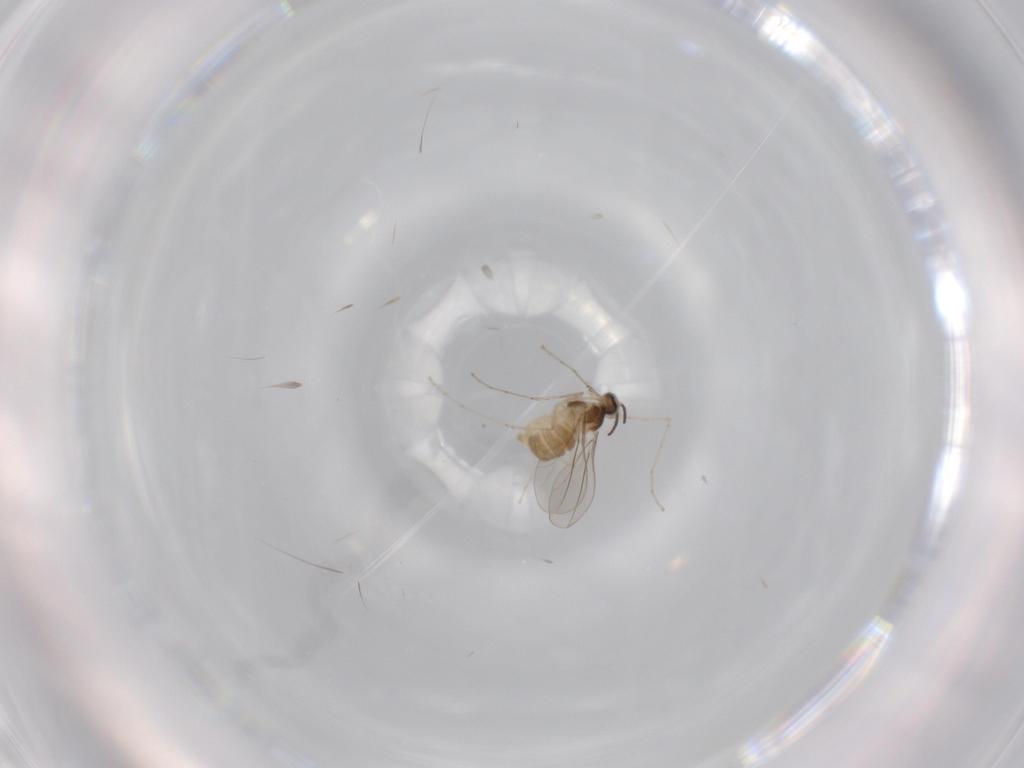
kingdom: Animalia
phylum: Arthropoda
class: Insecta
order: Diptera
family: Cecidomyiidae
